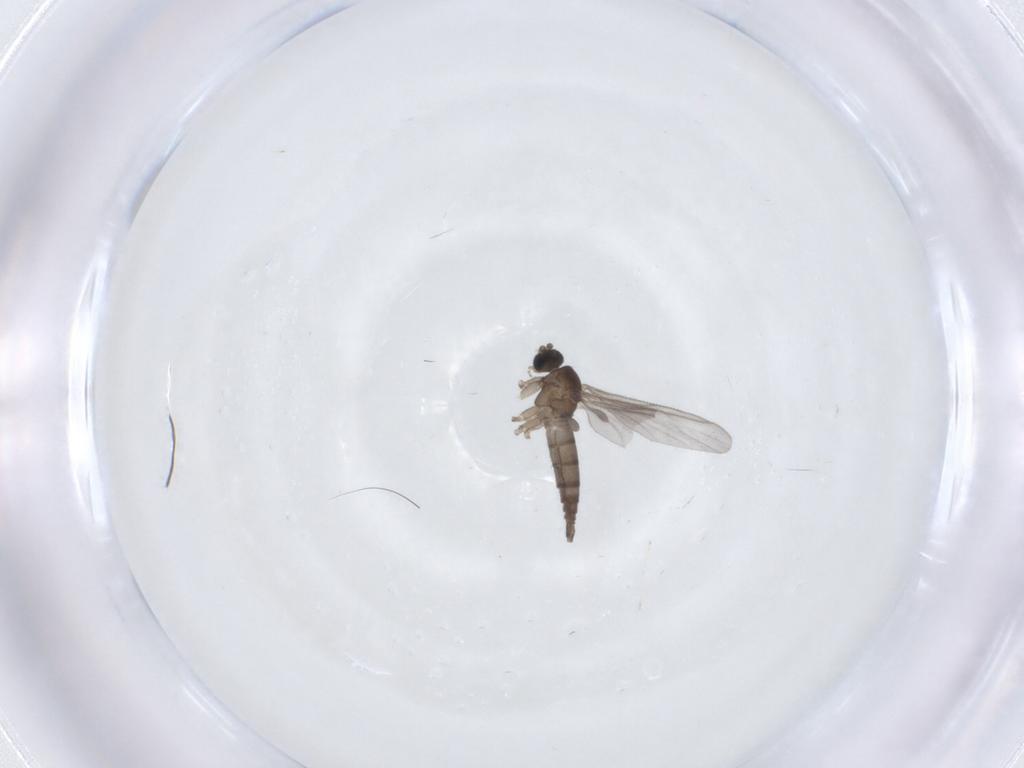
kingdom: Animalia
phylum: Arthropoda
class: Insecta
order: Diptera
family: Sciaridae
